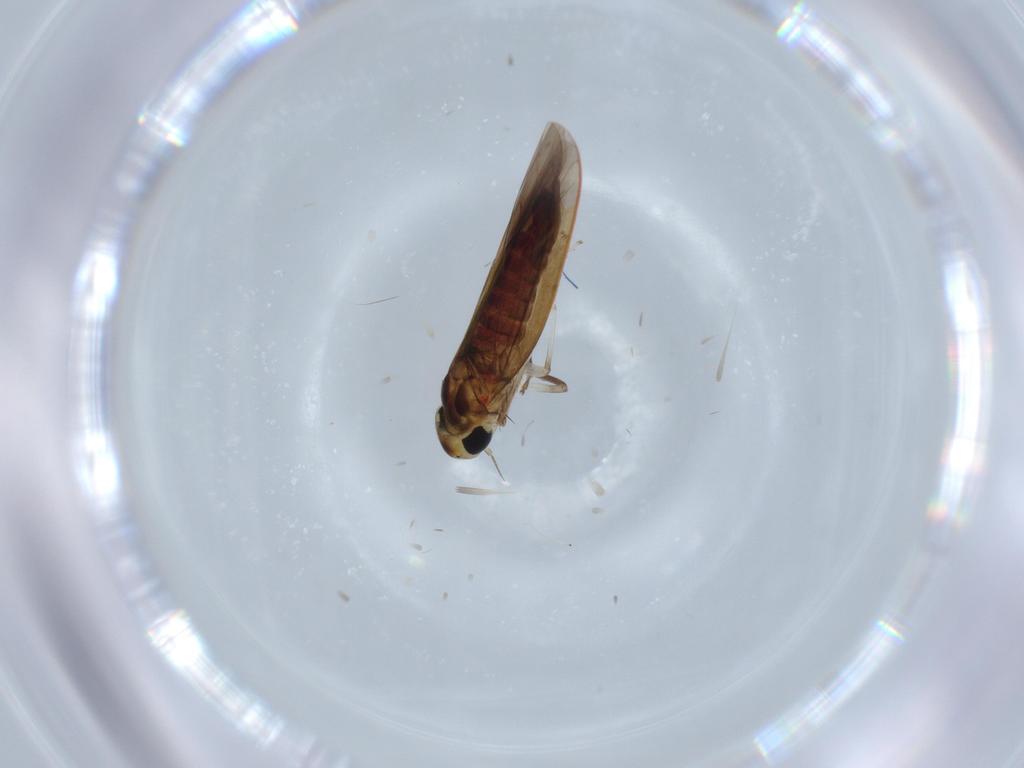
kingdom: Animalia
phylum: Arthropoda
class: Insecta
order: Hemiptera
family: Cicadellidae
